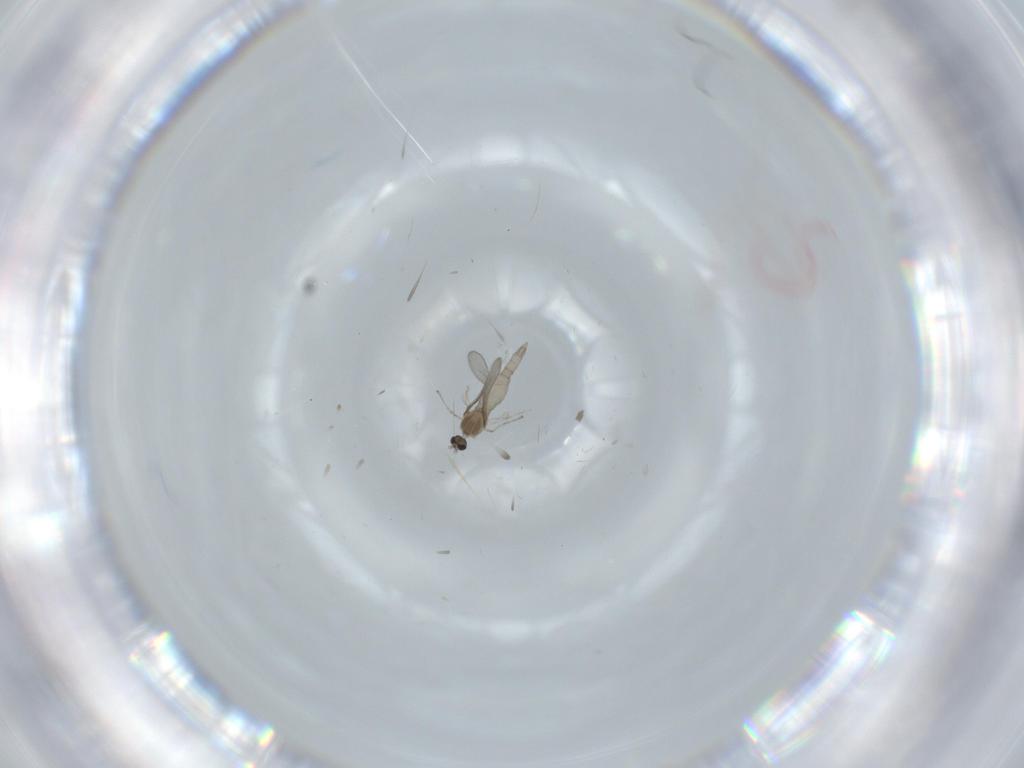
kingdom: Animalia
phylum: Arthropoda
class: Insecta
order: Diptera
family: Chironomidae
